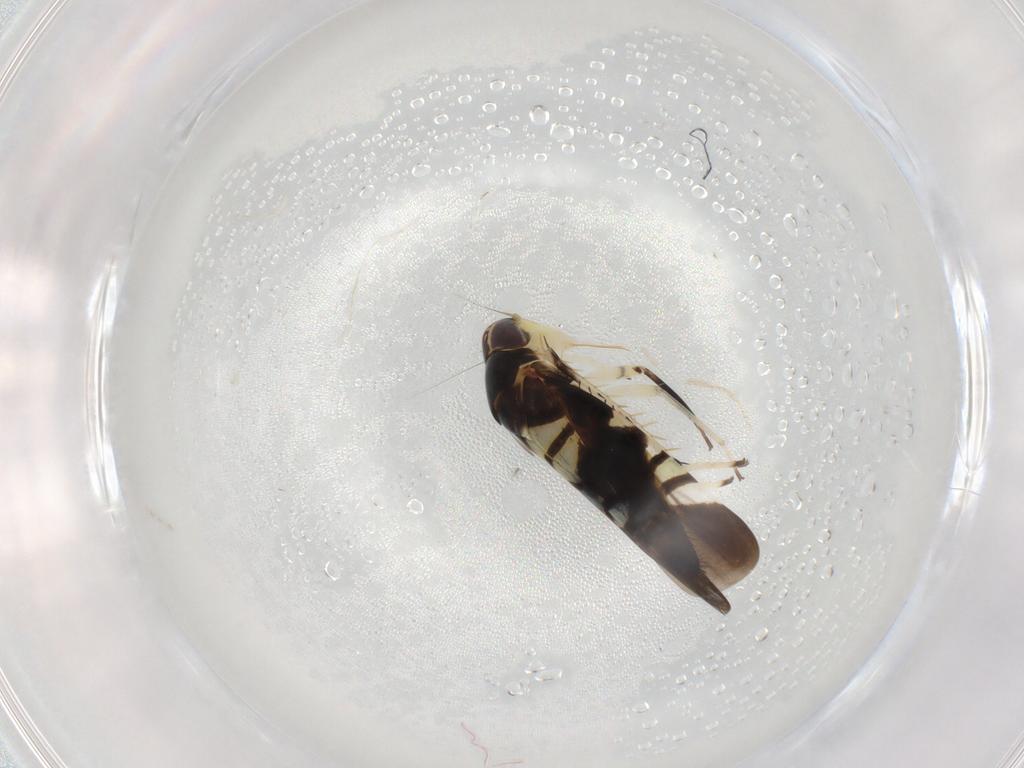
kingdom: Animalia
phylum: Arthropoda
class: Insecta
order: Hemiptera
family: Cicadellidae
